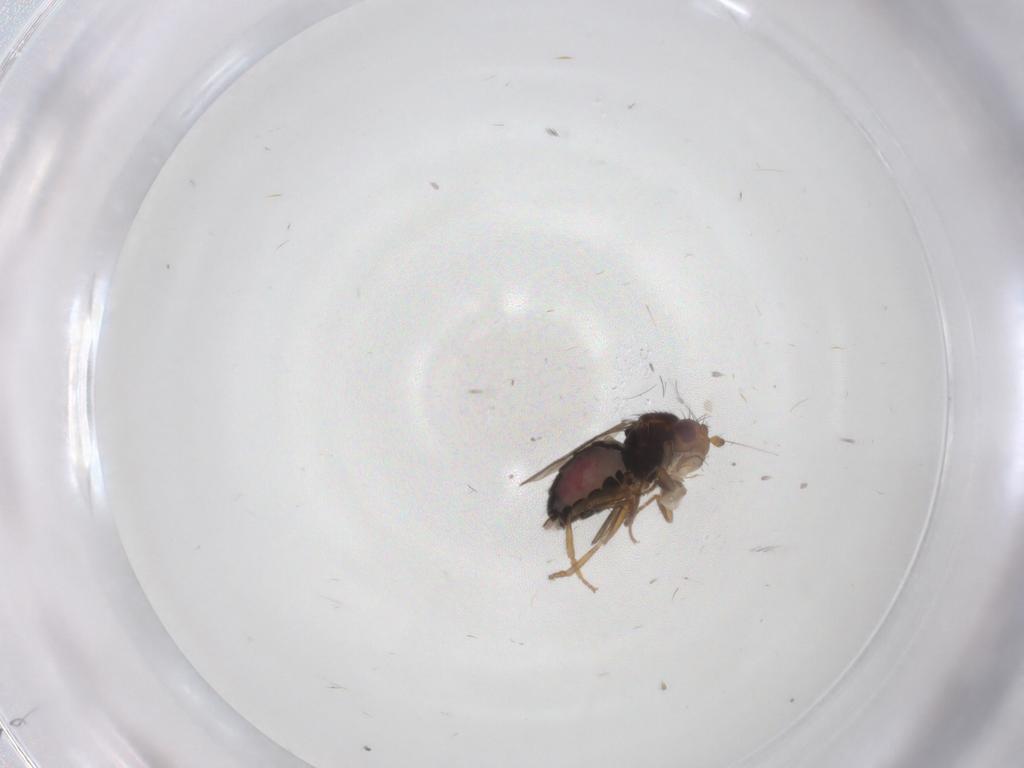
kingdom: Animalia
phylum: Arthropoda
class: Insecta
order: Diptera
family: Sphaeroceridae
